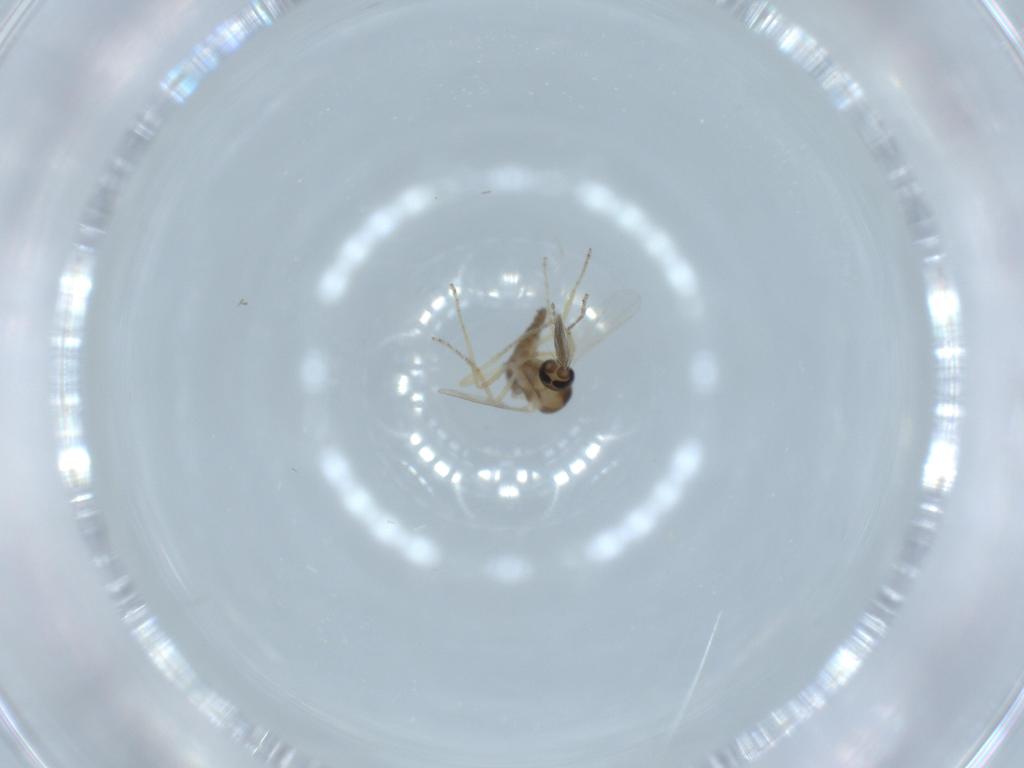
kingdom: Animalia
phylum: Arthropoda
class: Insecta
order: Diptera
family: Ceratopogonidae
